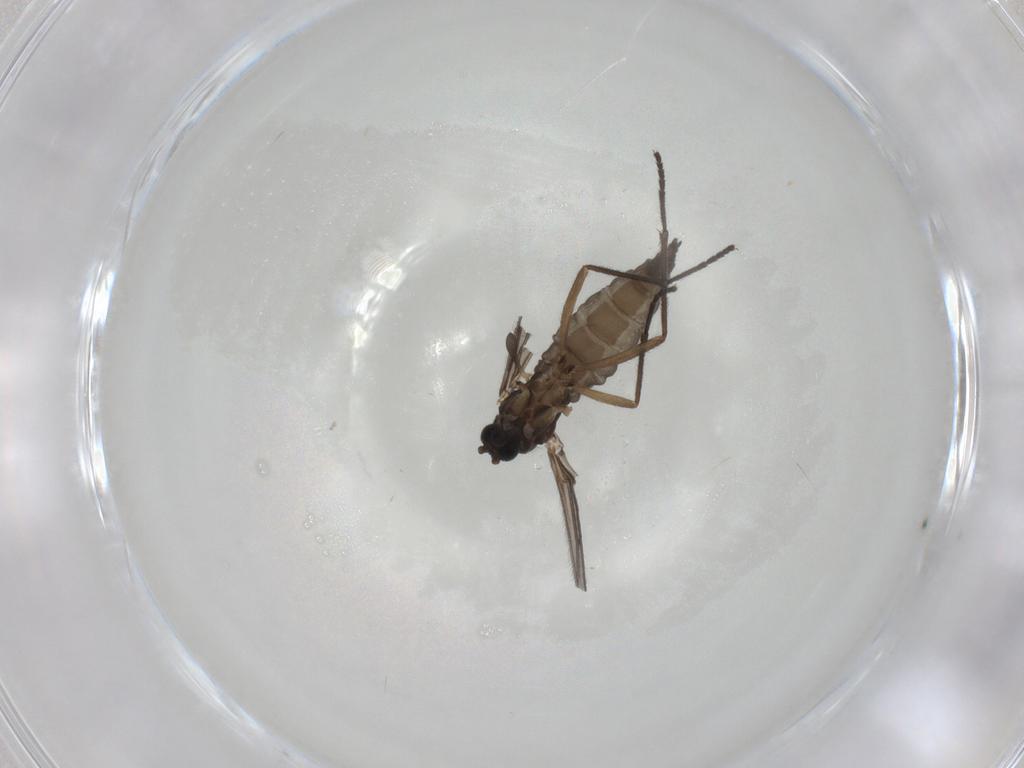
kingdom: Animalia
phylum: Arthropoda
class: Insecta
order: Diptera
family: Sciaridae
